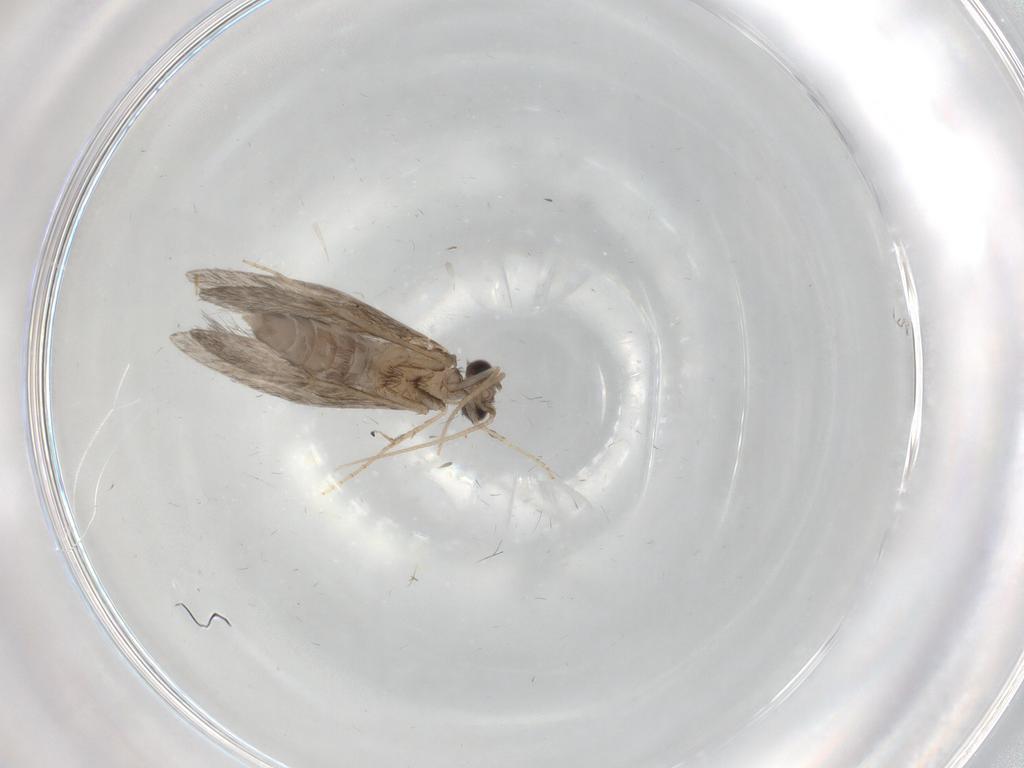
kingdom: Animalia
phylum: Arthropoda
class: Insecta
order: Trichoptera
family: Hydroptilidae
